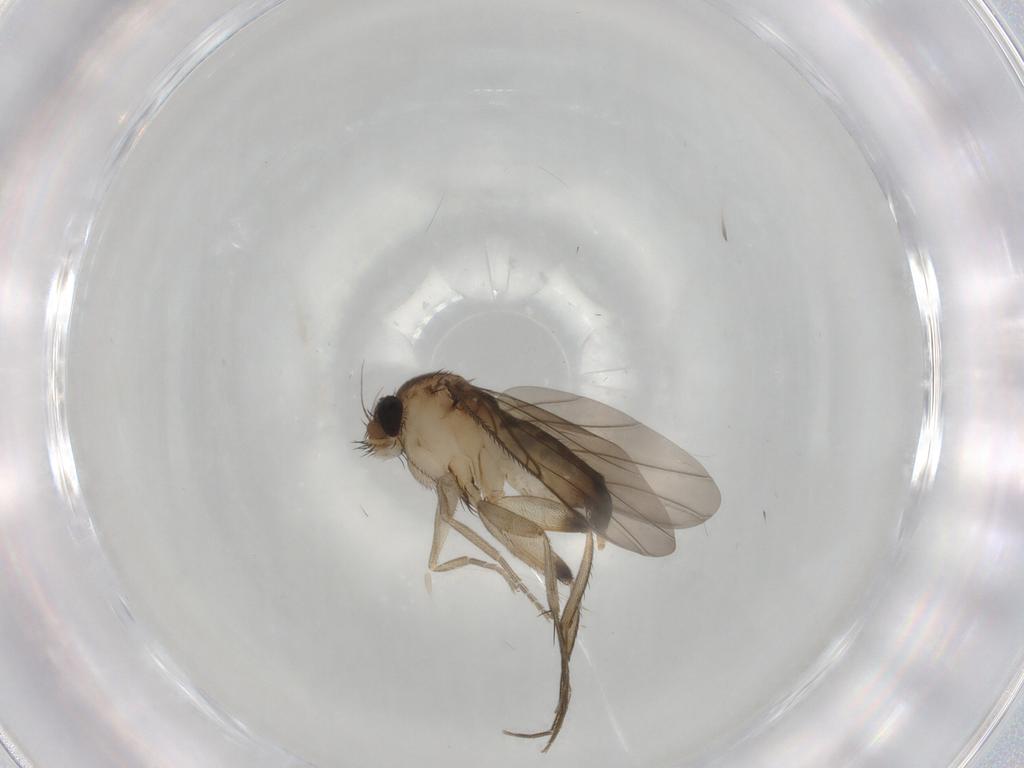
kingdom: Animalia
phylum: Arthropoda
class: Insecta
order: Diptera
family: Phoridae
